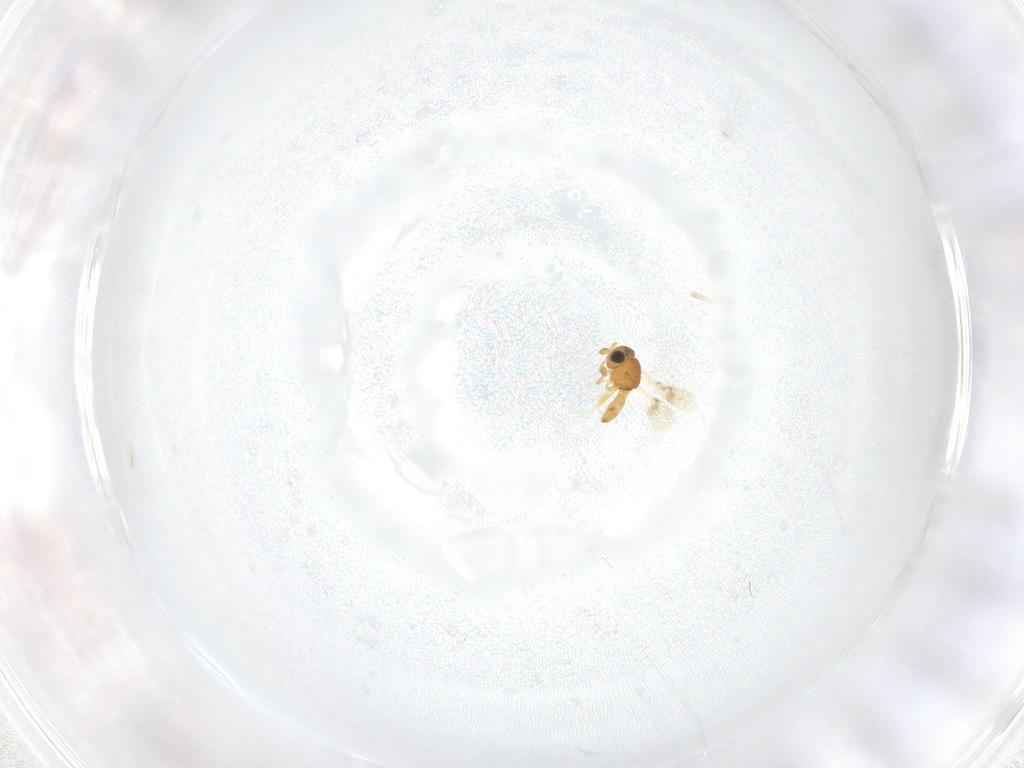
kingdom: Animalia
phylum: Arthropoda
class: Insecta
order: Hymenoptera
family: Scelionidae
